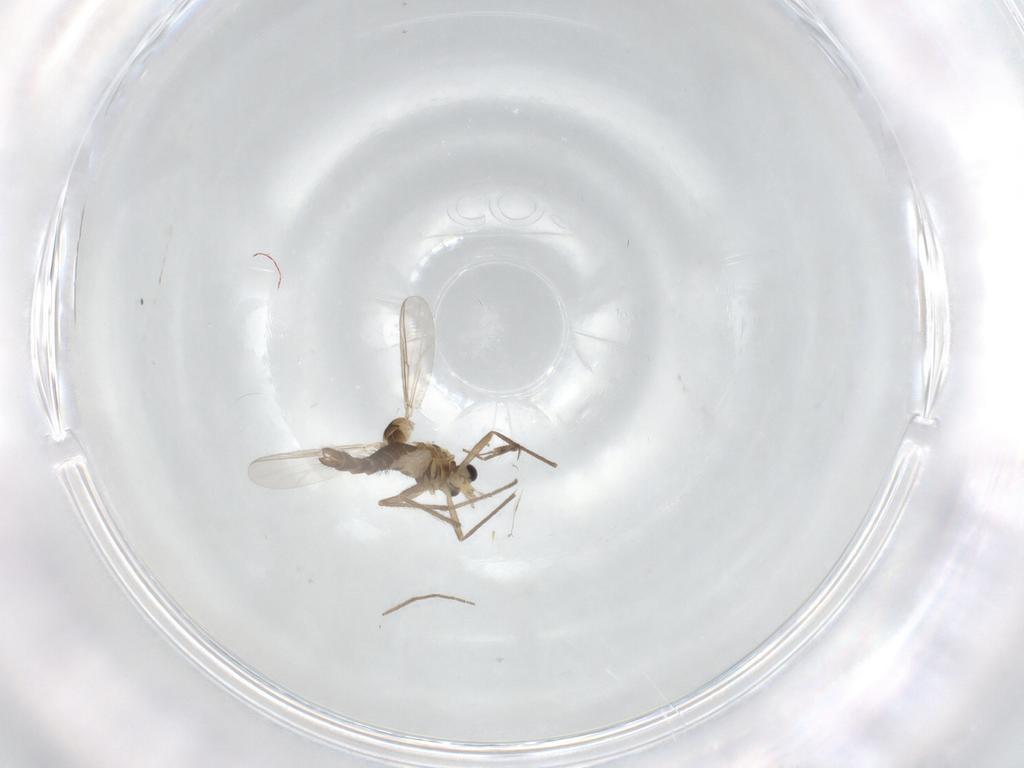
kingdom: Animalia
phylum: Arthropoda
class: Insecta
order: Diptera
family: Chironomidae
